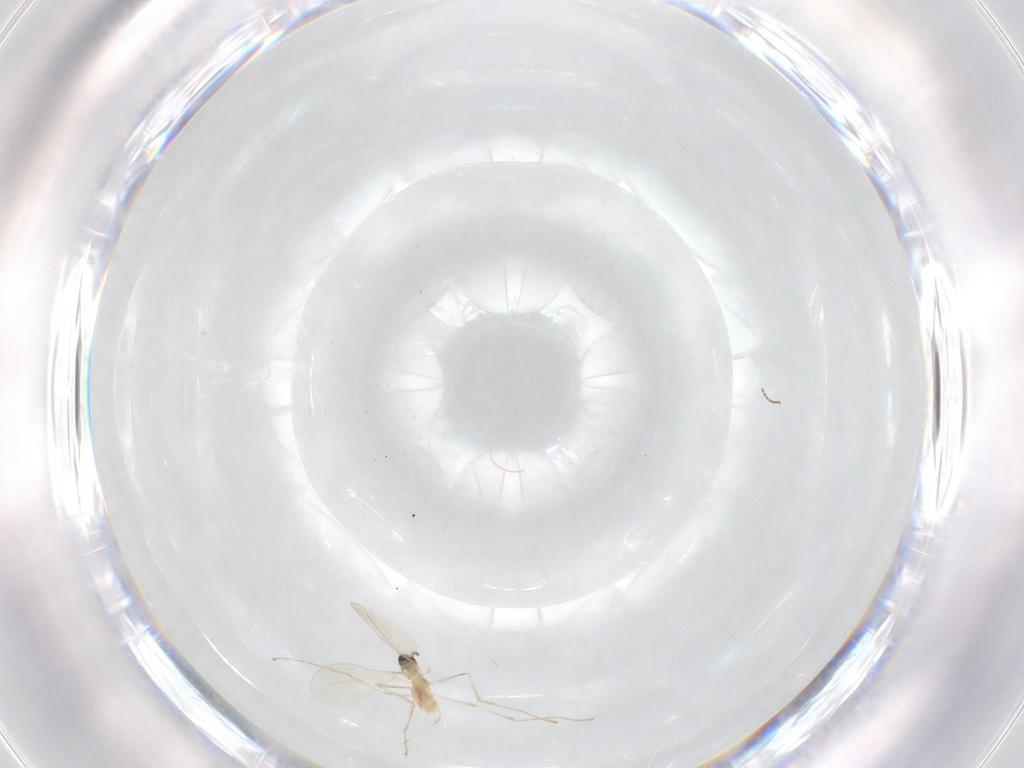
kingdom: Animalia
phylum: Arthropoda
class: Insecta
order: Diptera
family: Cecidomyiidae
